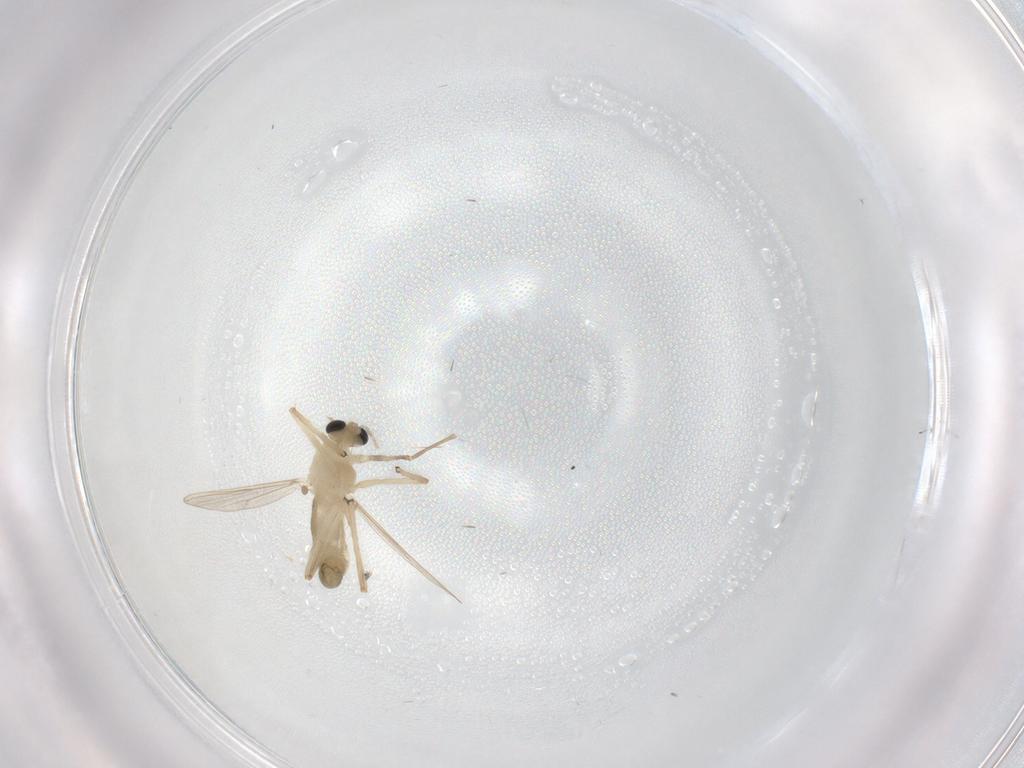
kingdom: Animalia
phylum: Arthropoda
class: Insecta
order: Diptera
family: Chironomidae
